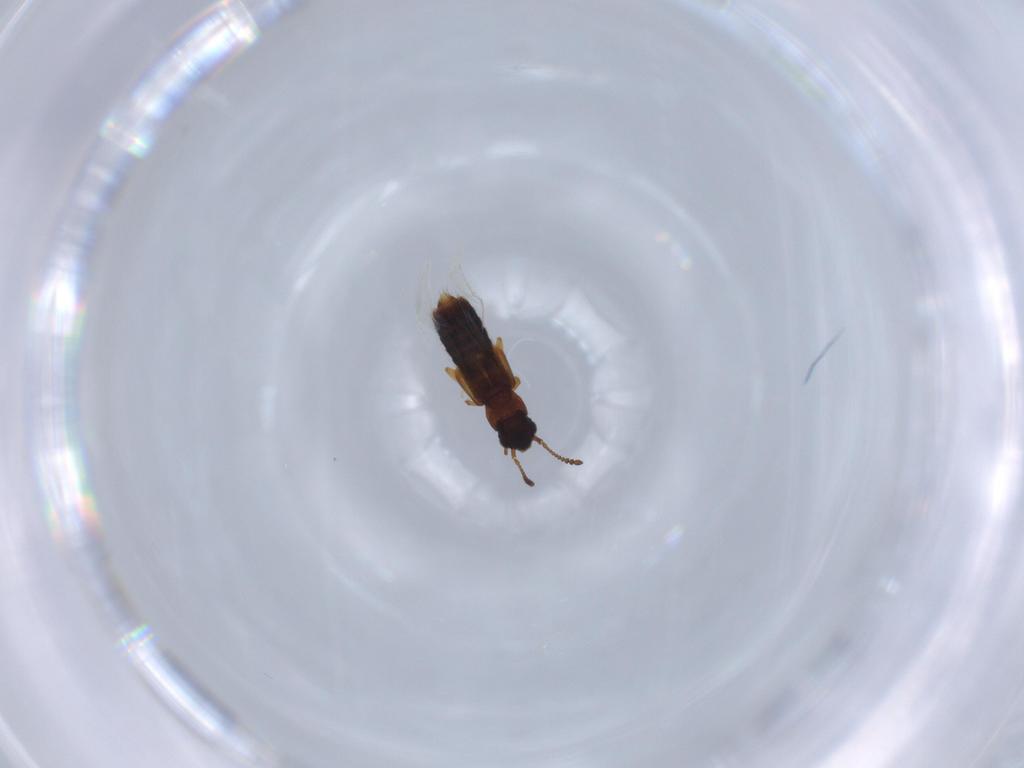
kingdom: Animalia
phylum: Arthropoda
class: Insecta
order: Coleoptera
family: Staphylinidae
